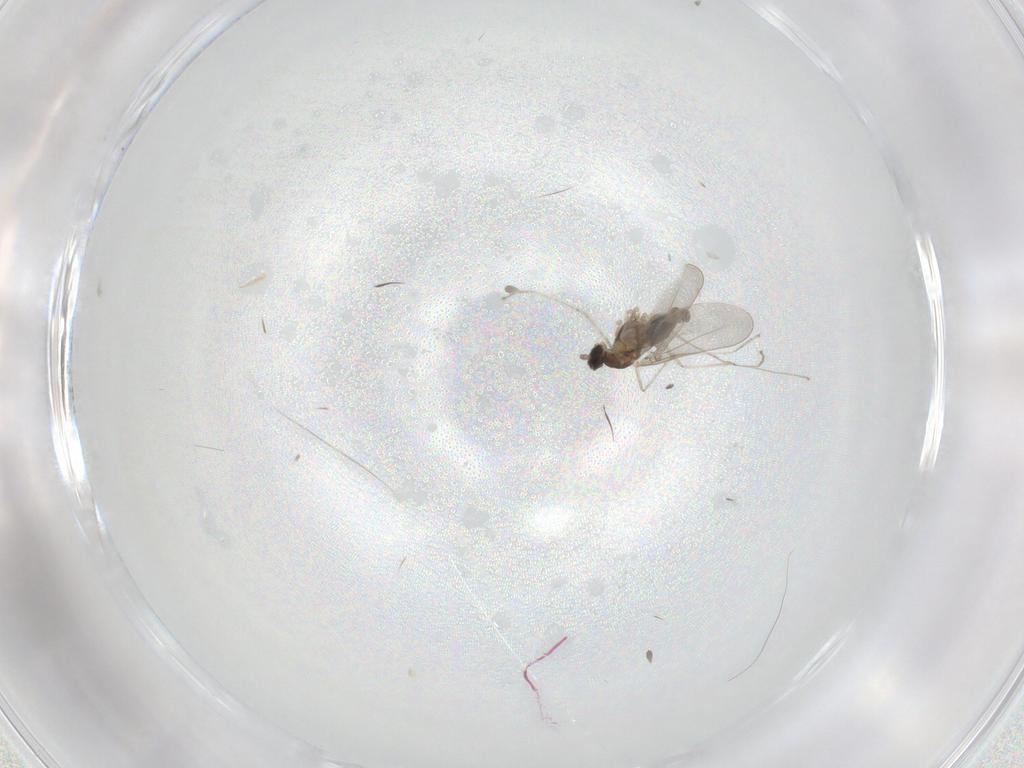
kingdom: Animalia
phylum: Arthropoda
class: Insecta
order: Diptera
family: Cecidomyiidae
